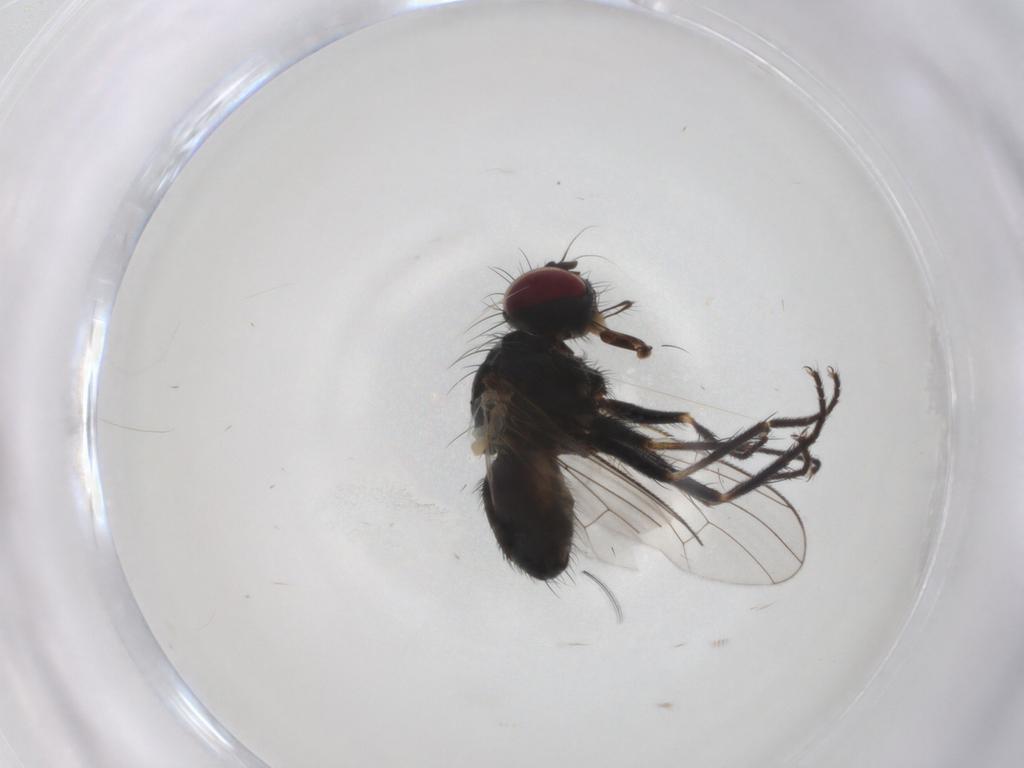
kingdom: Animalia
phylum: Arthropoda
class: Insecta
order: Diptera
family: Muscidae
